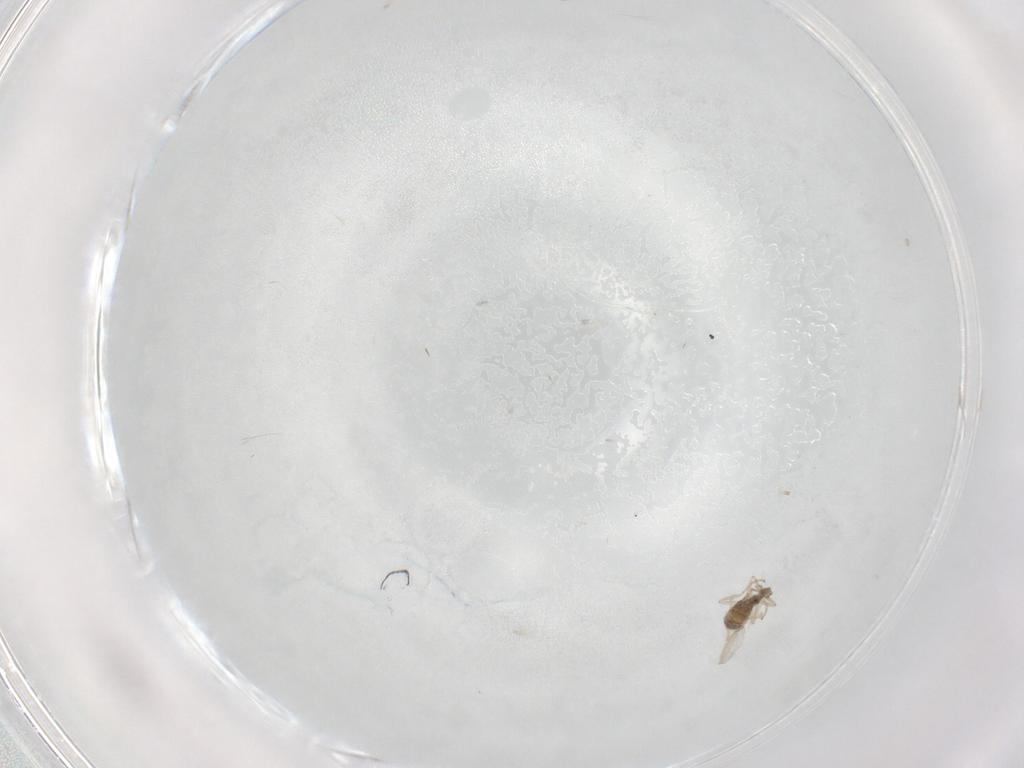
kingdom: Animalia
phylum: Arthropoda
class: Insecta
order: Diptera
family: Cecidomyiidae
